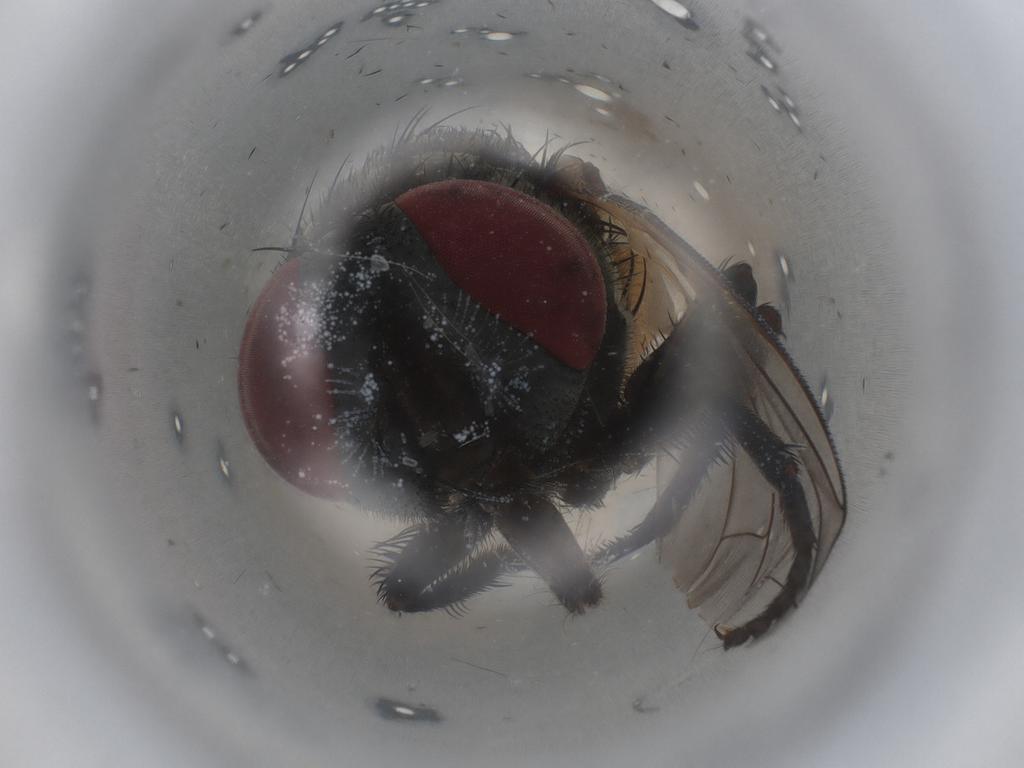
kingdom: Animalia
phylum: Arthropoda
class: Insecta
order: Diptera
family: Muscidae
